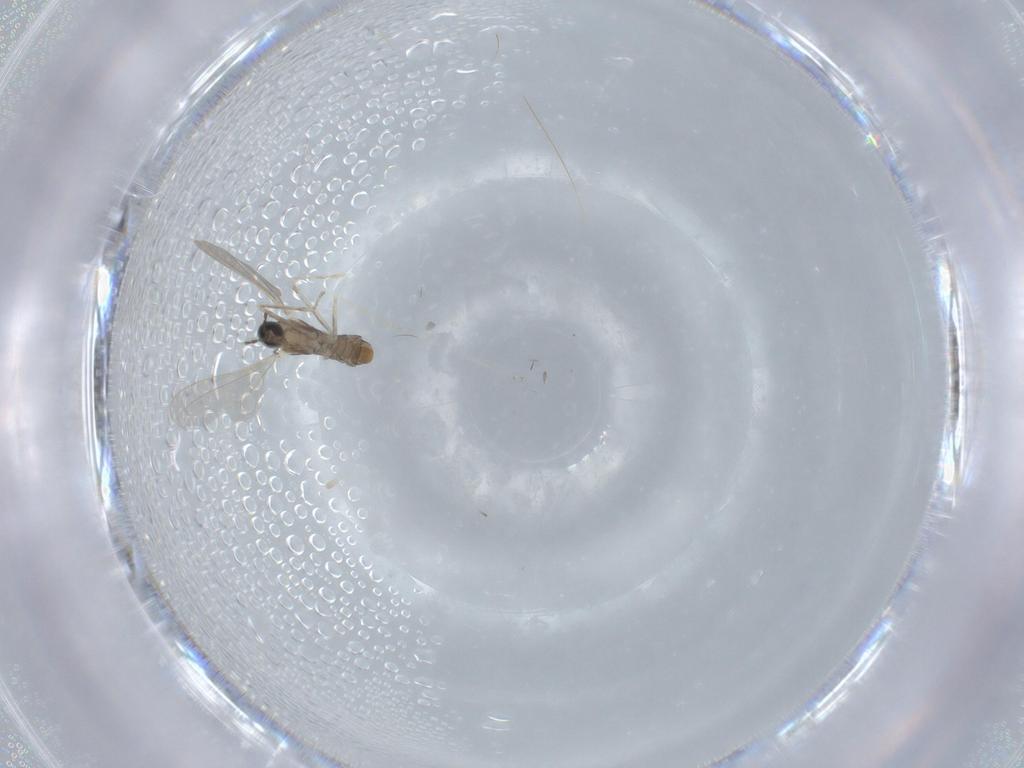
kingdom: Animalia
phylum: Arthropoda
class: Insecta
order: Diptera
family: Cecidomyiidae
